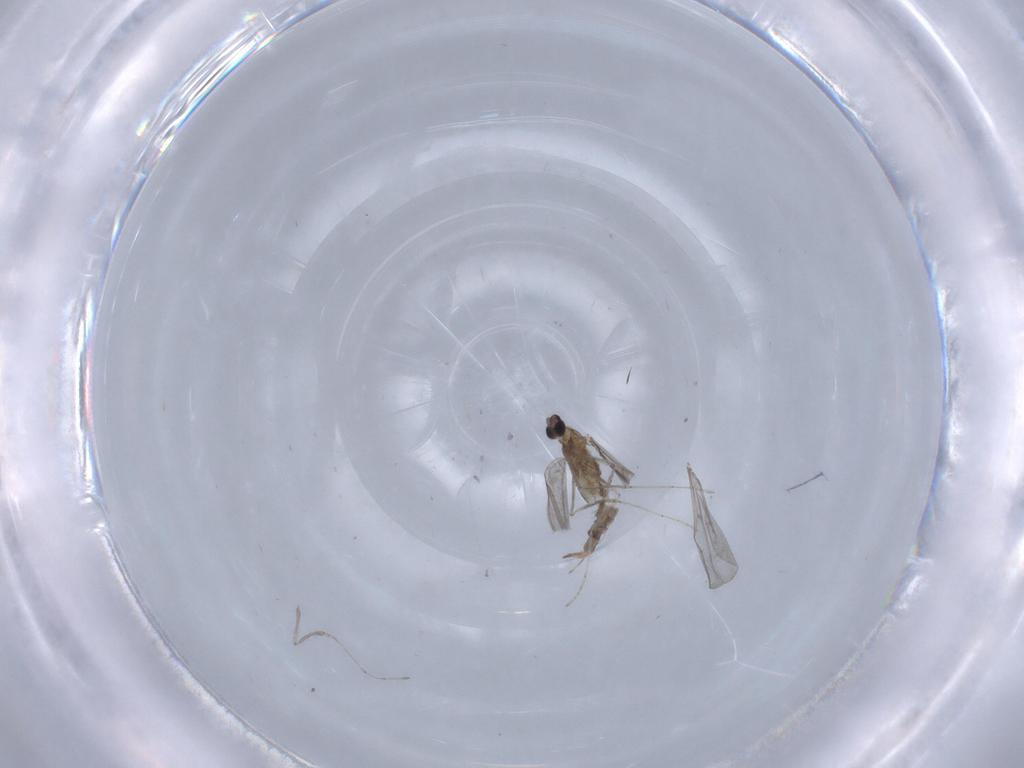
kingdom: Animalia
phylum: Arthropoda
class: Insecta
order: Diptera
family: Cecidomyiidae
